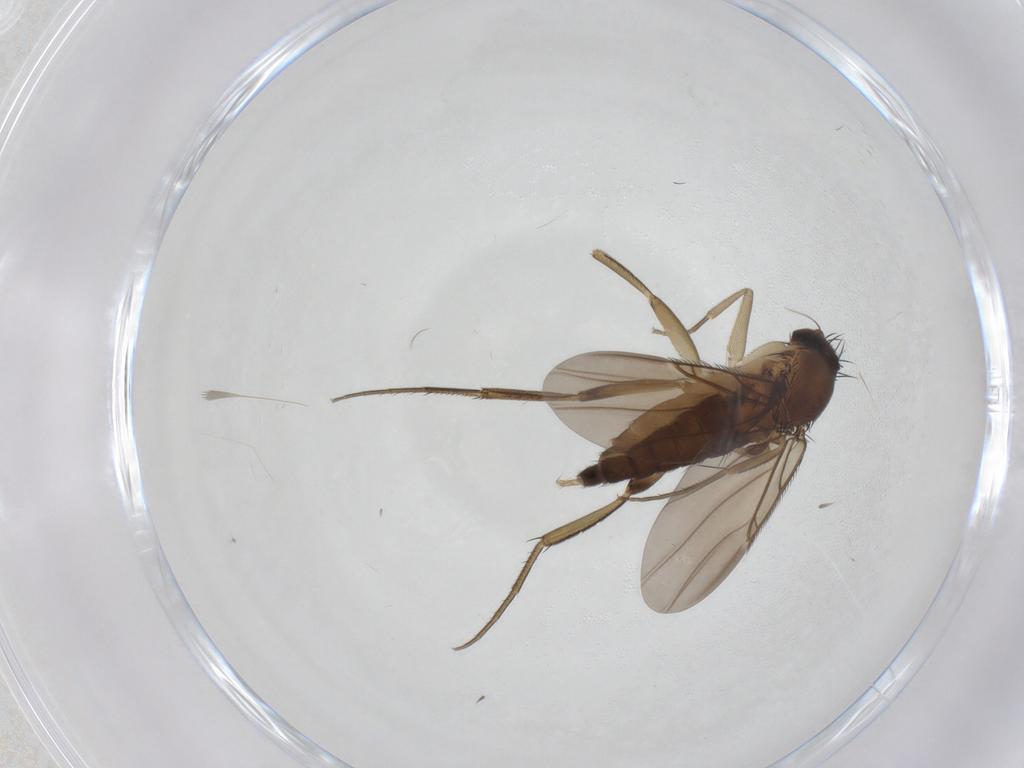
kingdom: Animalia
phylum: Arthropoda
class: Insecta
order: Diptera
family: Phoridae
